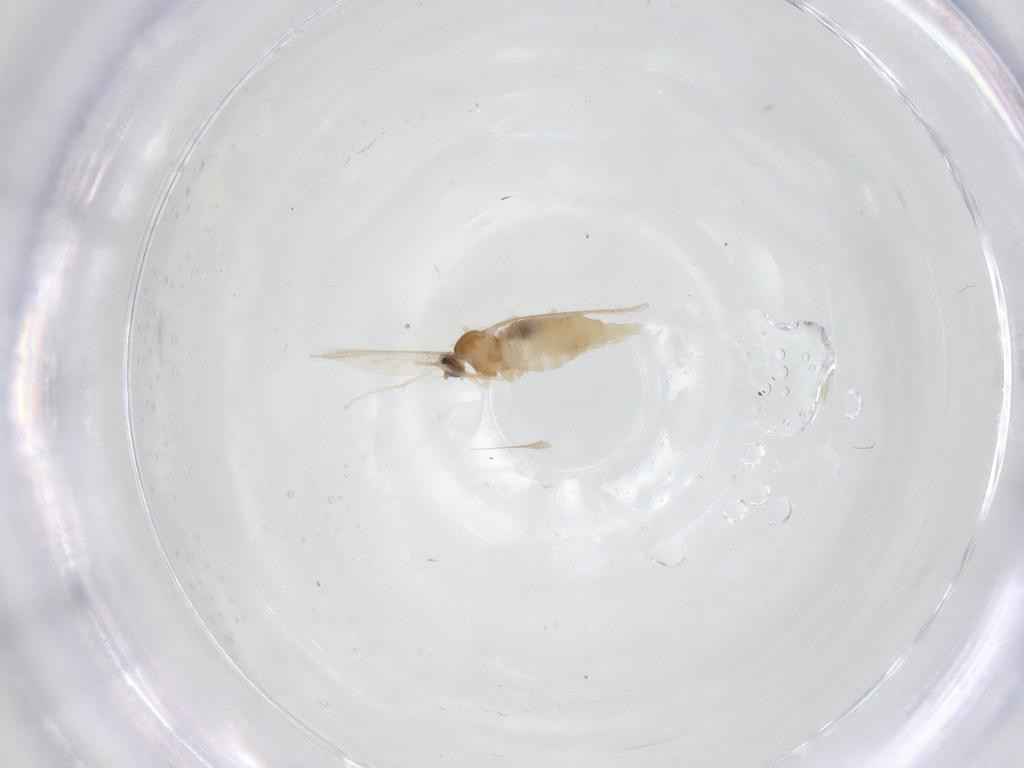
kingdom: Animalia
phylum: Arthropoda
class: Insecta
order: Diptera
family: Cecidomyiidae
